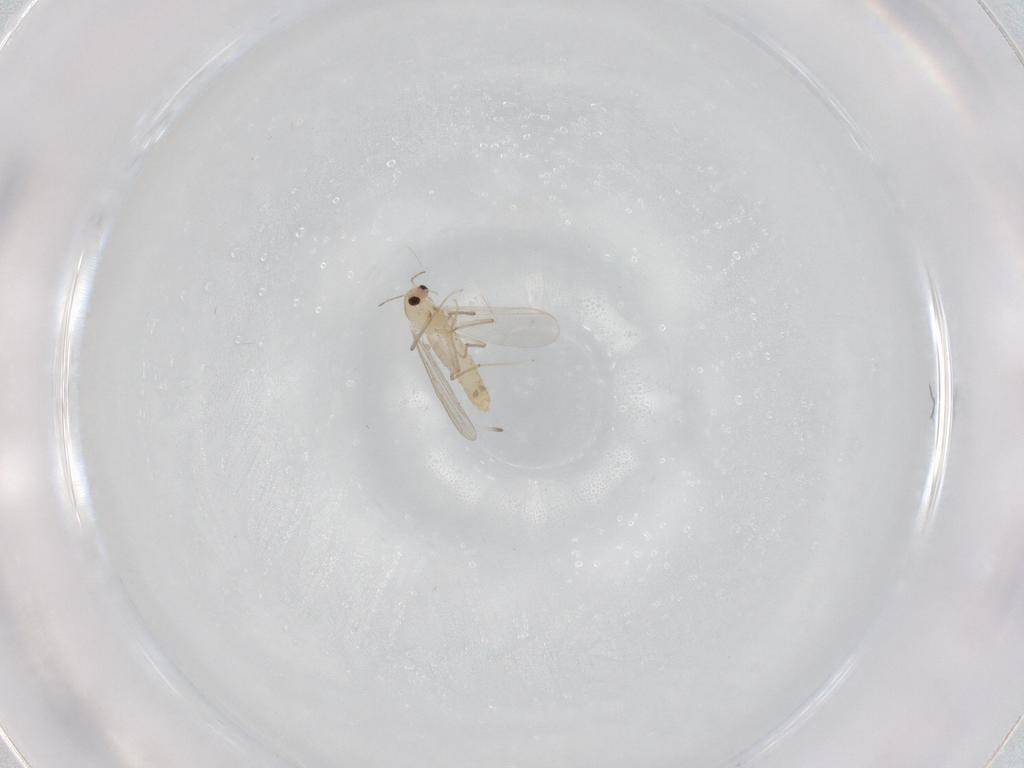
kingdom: Animalia
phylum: Arthropoda
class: Insecta
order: Diptera
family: Chironomidae
